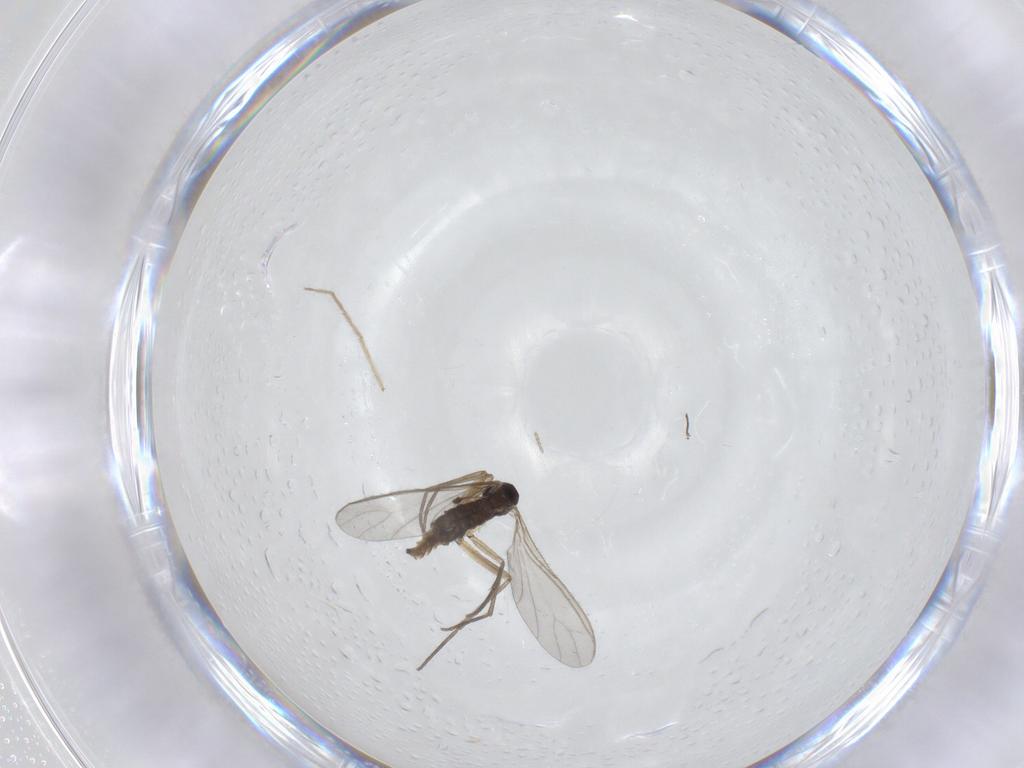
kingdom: Animalia
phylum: Arthropoda
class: Insecta
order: Diptera
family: Sciaridae
